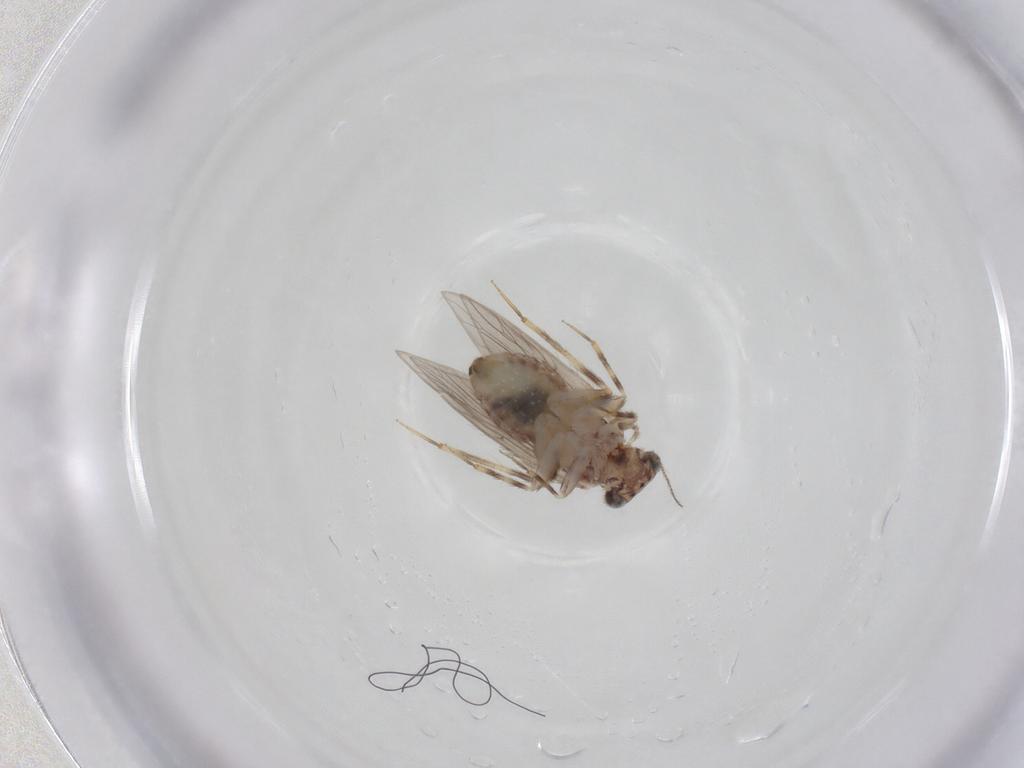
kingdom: Animalia
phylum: Arthropoda
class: Insecta
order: Psocodea
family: Lepidopsocidae
